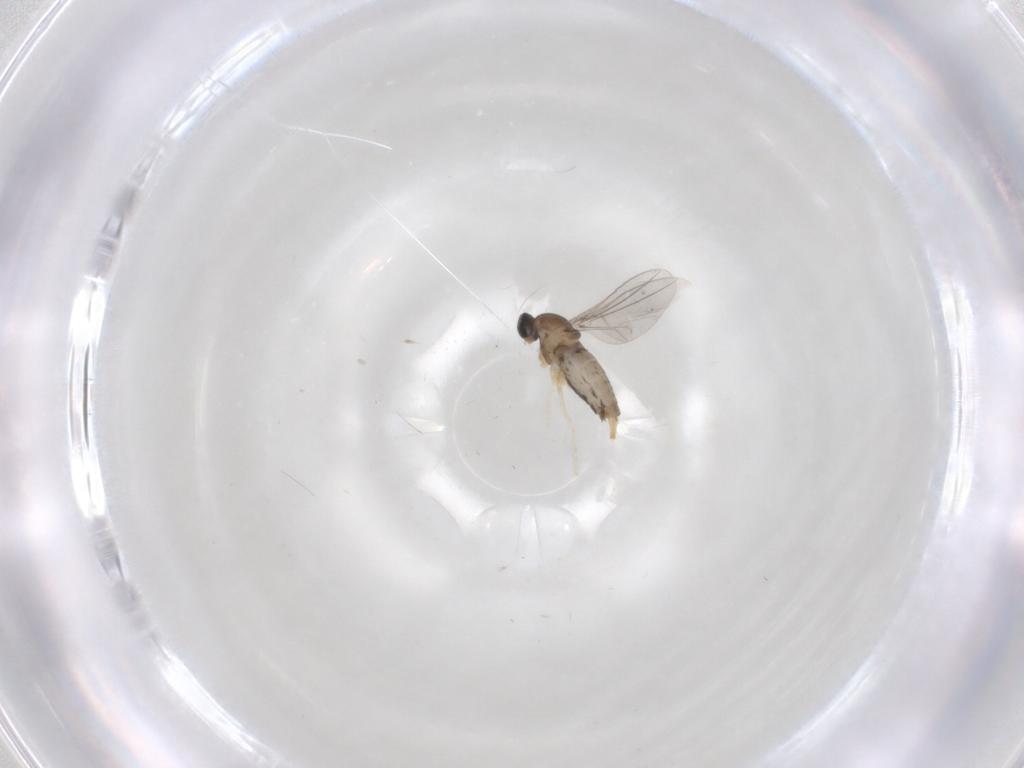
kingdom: Animalia
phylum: Arthropoda
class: Insecta
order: Diptera
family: Cecidomyiidae
